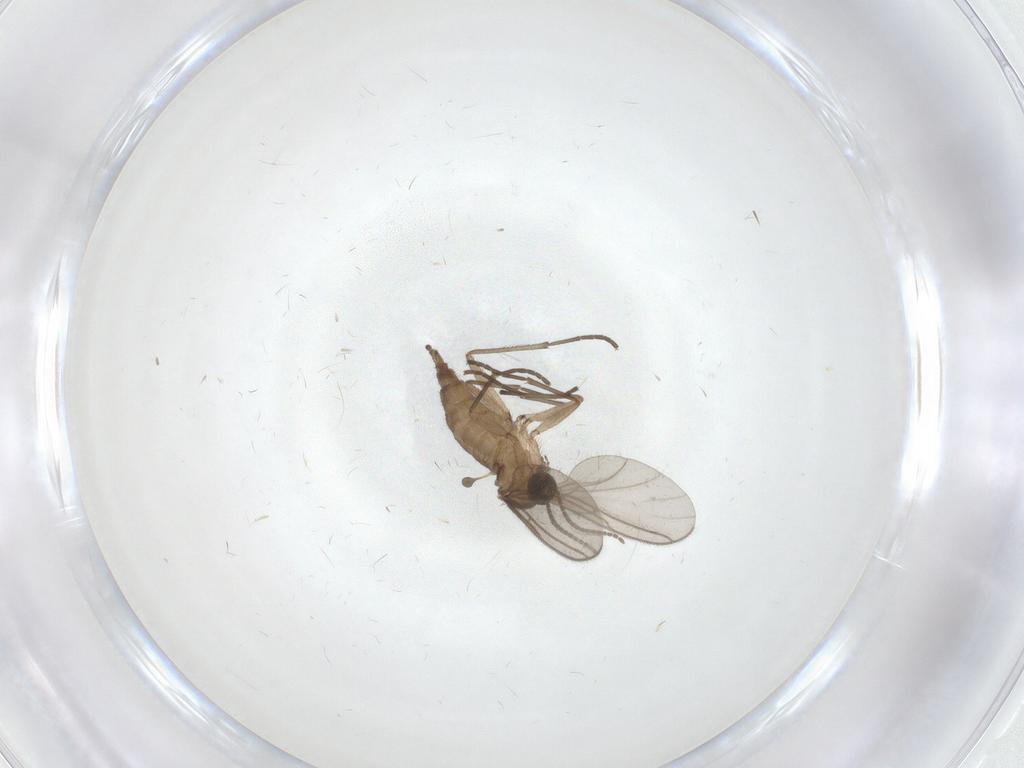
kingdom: Animalia
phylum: Arthropoda
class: Insecta
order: Diptera
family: Sciaridae
